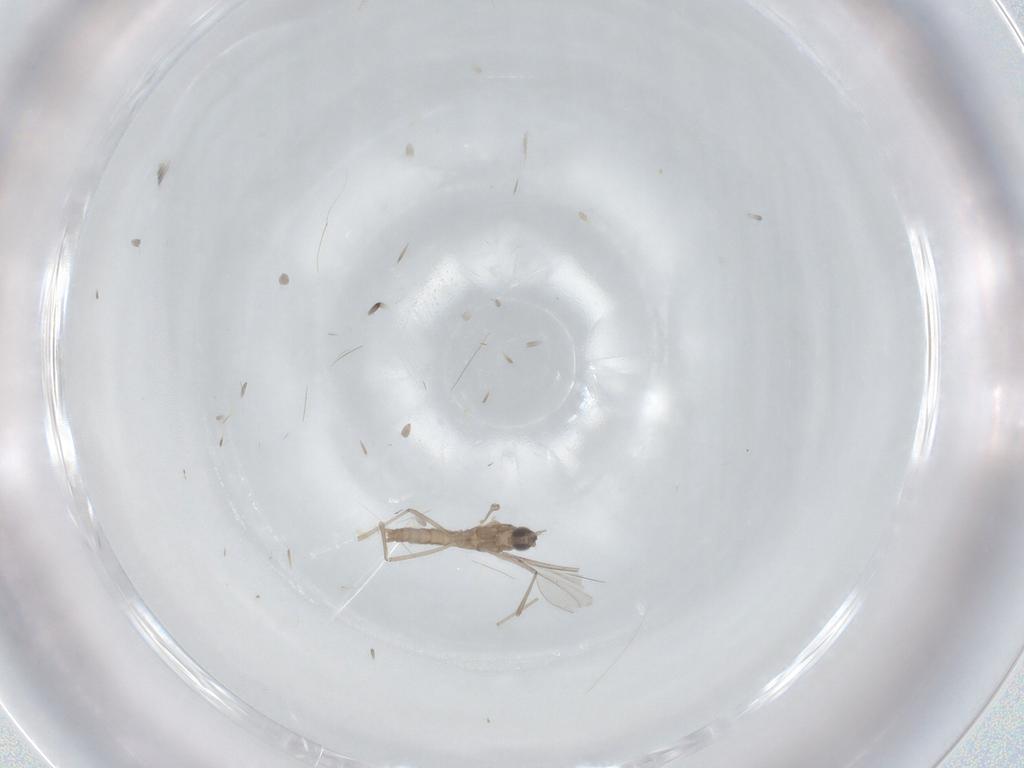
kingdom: Animalia
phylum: Arthropoda
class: Insecta
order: Diptera
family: Cecidomyiidae
